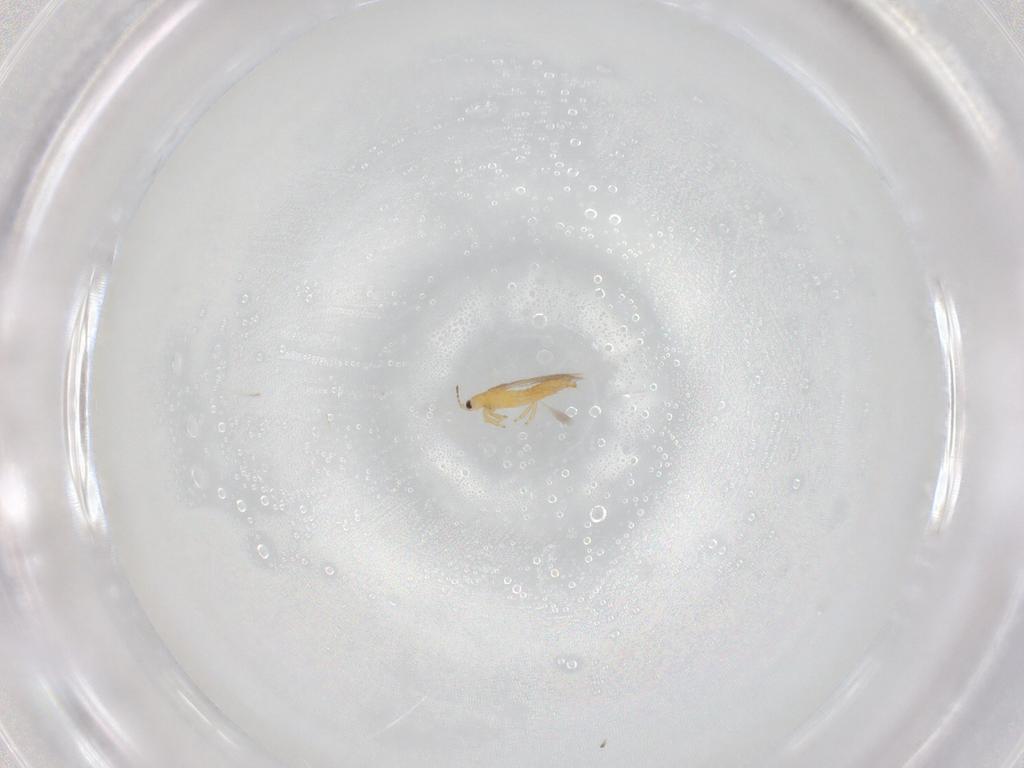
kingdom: Animalia
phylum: Arthropoda
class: Insecta
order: Thysanoptera
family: Thripidae
